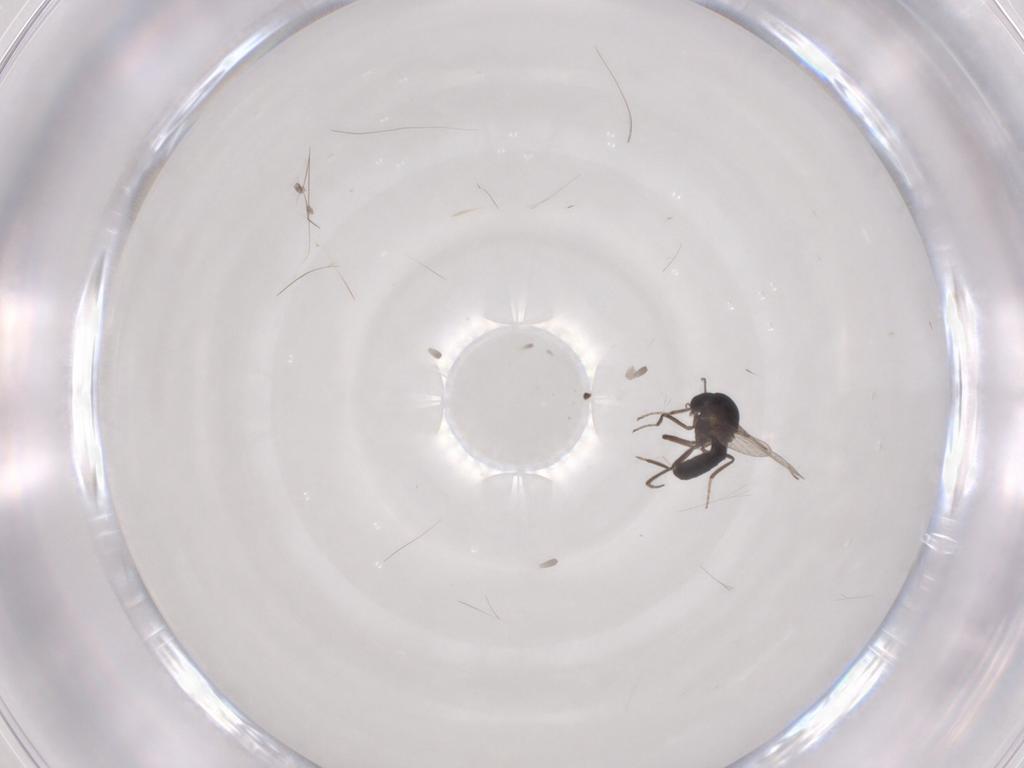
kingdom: Animalia
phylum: Arthropoda
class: Insecta
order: Diptera
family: Ceratopogonidae
